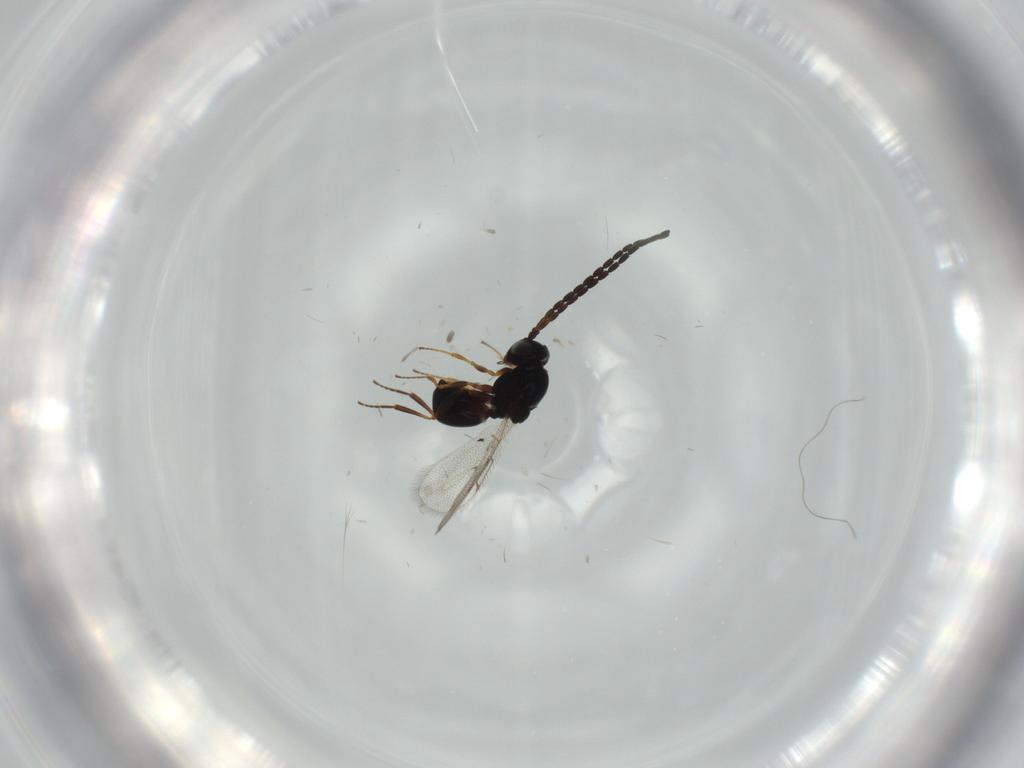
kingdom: Animalia
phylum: Arthropoda
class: Insecta
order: Hymenoptera
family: Figitidae
